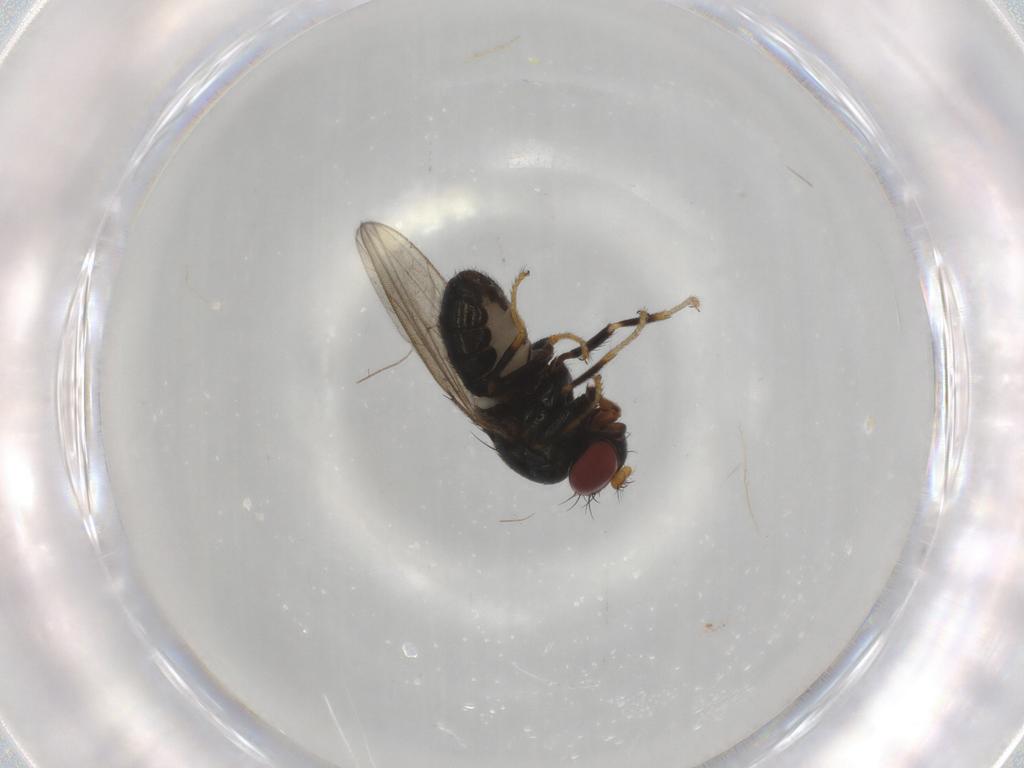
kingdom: Animalia
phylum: Arthropoda
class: Insecta
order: Diptera
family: Ephydridae
